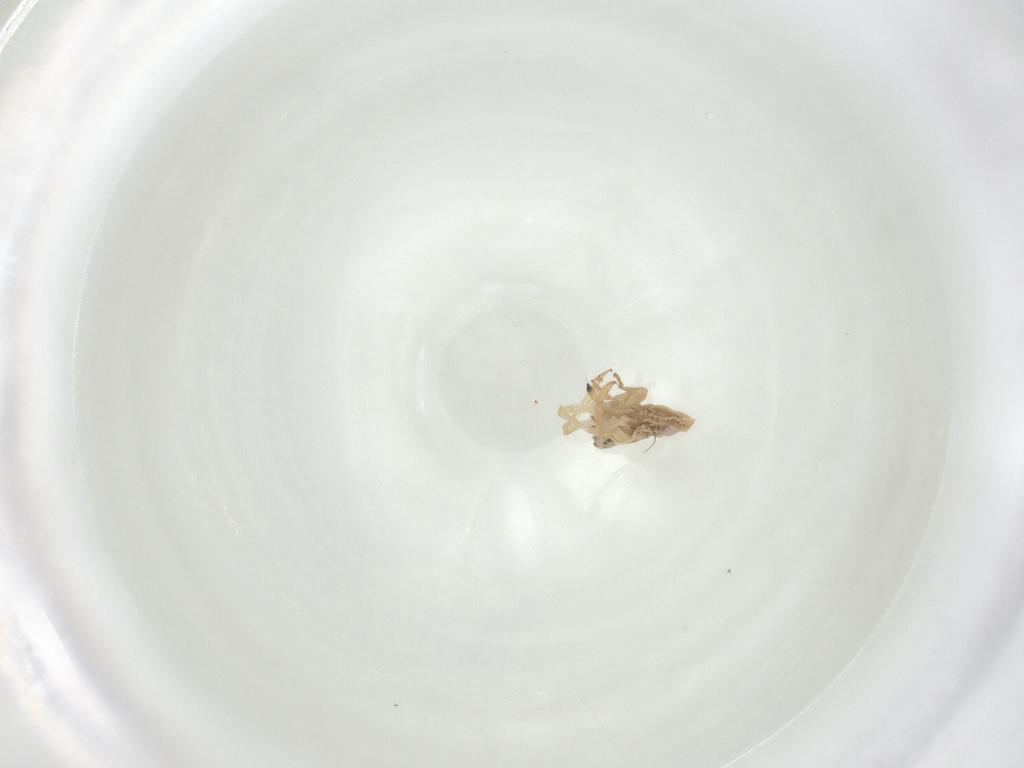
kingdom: Animalia
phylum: Arthropoda
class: Insecta
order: Hemiptera
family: Tropiduchidae
